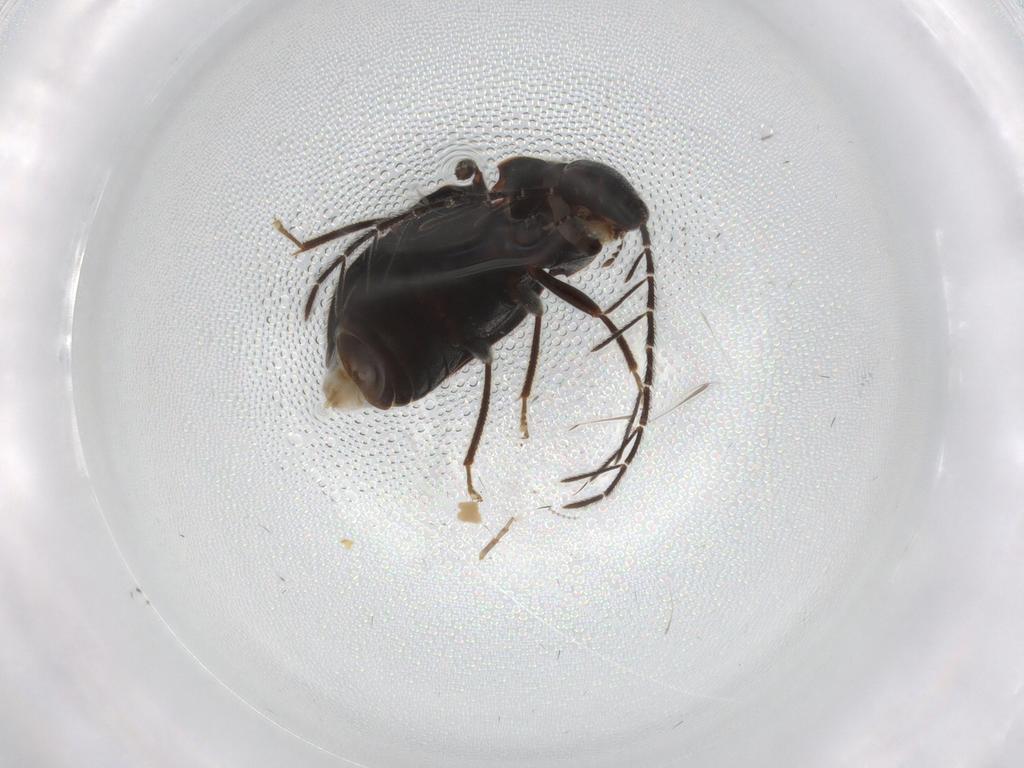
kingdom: Animalia
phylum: Arthropoda
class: Insecta
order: Coleoptera
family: Ptilodactylidae
